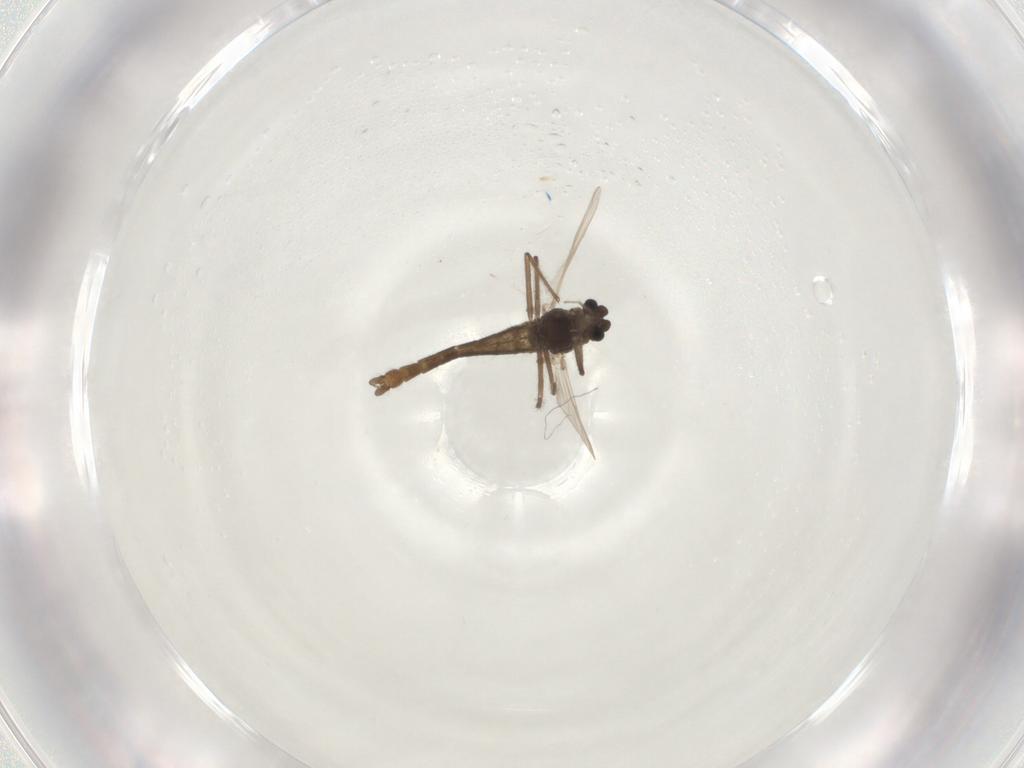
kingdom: Animalia
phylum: Arthropoda
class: Insecta
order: Diptera
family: Chironomidae
